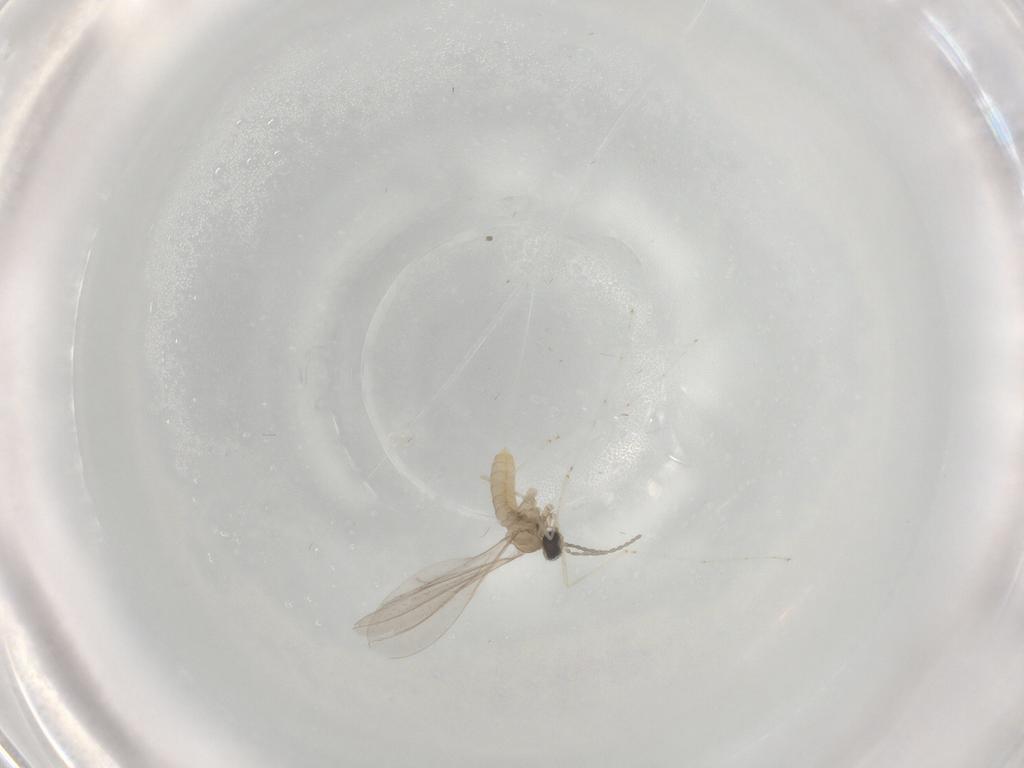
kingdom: Animalia
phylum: Arthropoda
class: Insecta
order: Diptera
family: Cecidomyiidae
